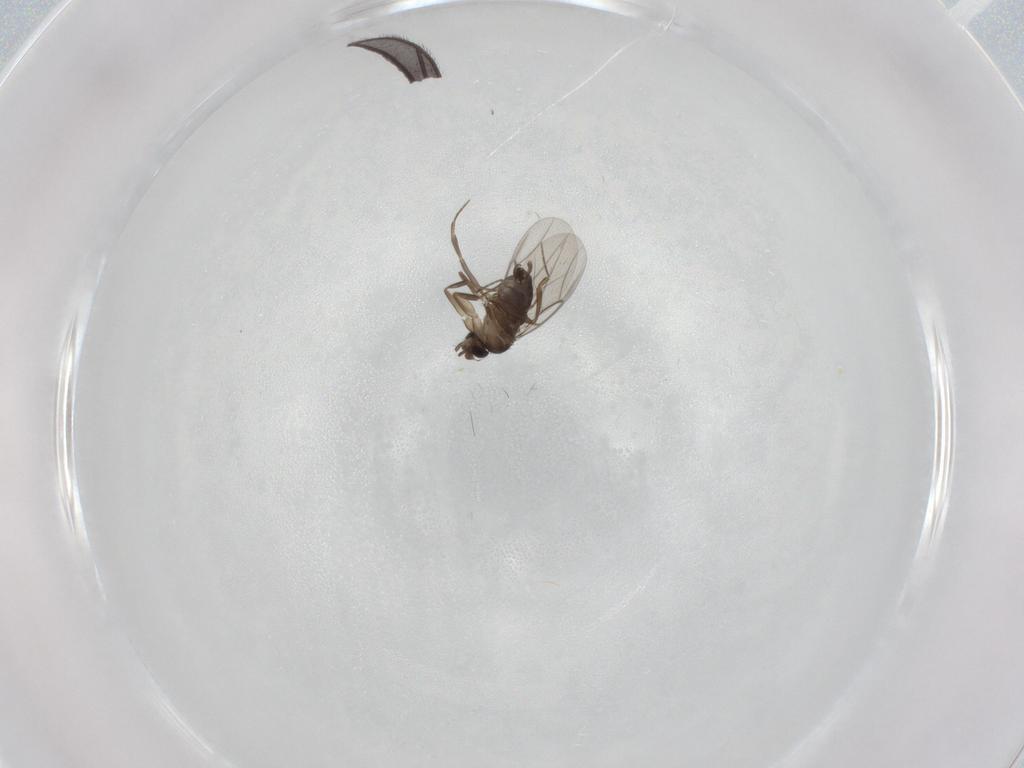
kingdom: Animalia
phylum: Arthropoda
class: Insecta
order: Diptera
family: Phoridae
